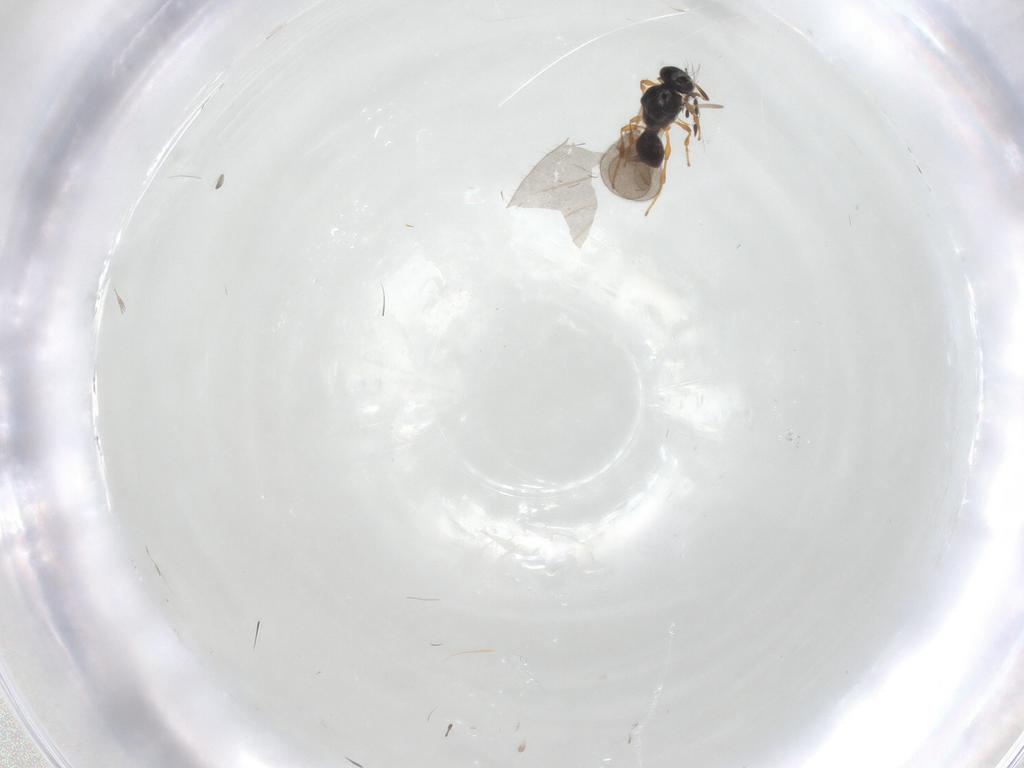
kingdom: Animalia
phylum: Arthropoda
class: Insecta
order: Hymenoptera
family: Platygastridae
